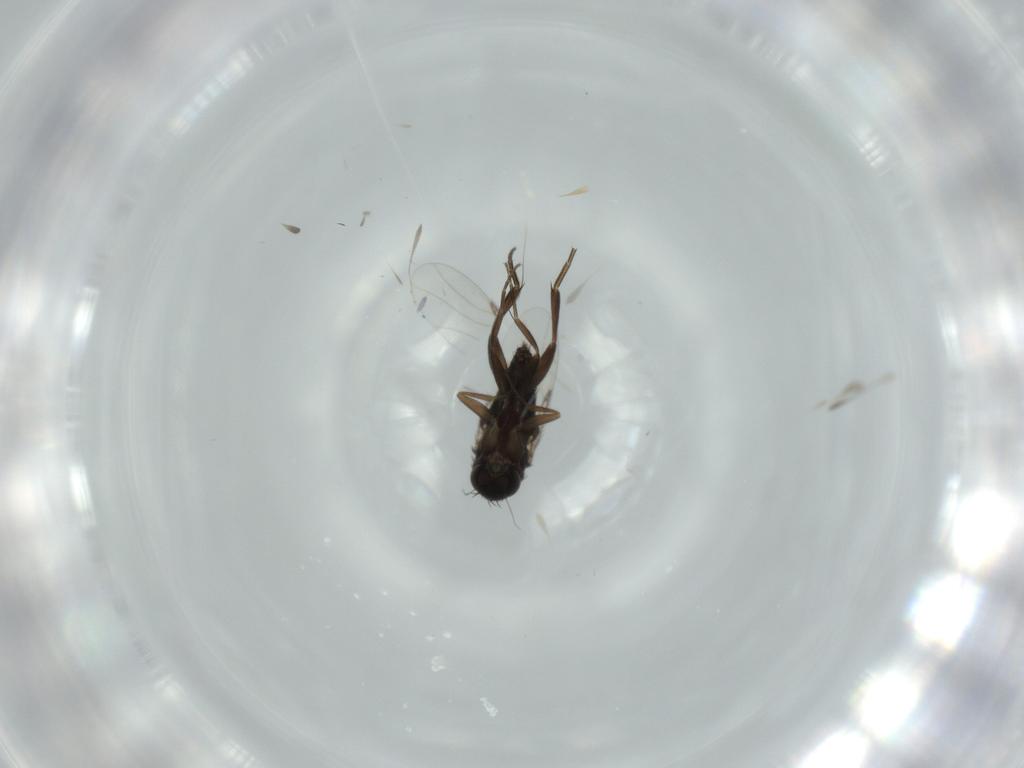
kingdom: Animalia
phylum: Arthropoda
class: Insecta
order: Diptera
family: Phoridae
